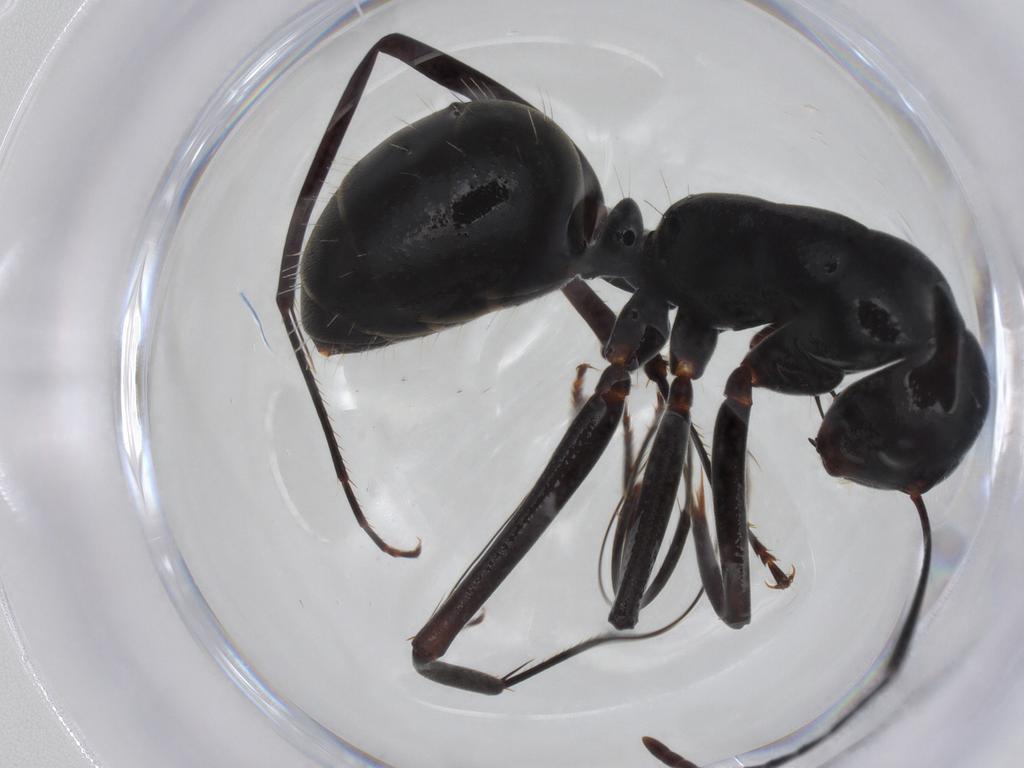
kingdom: Animalia
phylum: Arthropoda
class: Insecta
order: Hymenoptera
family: Formicidae
